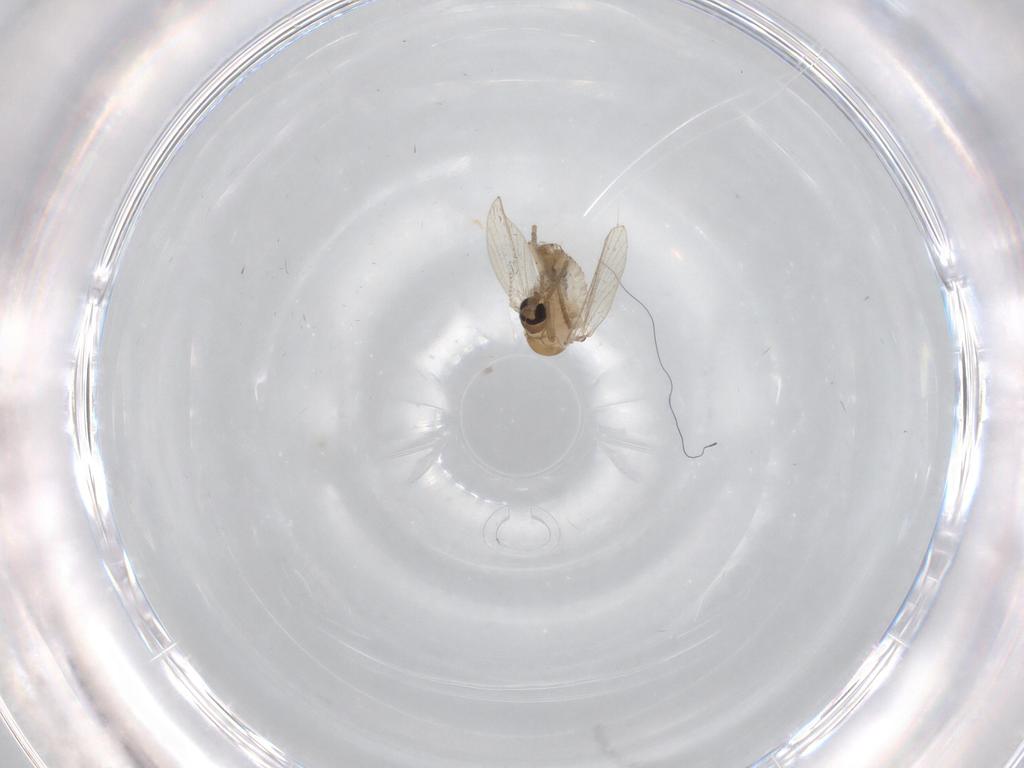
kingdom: Animalia
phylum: Arthropoda
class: Insecta
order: Diptera
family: Psychodidae
